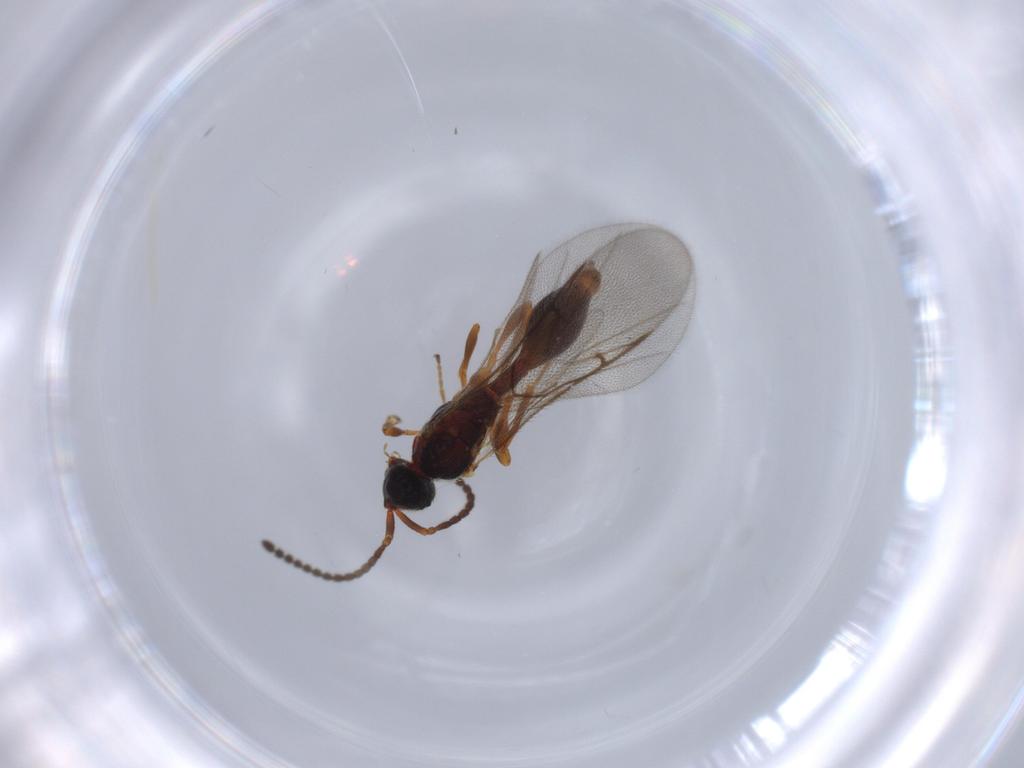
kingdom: Animalia
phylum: Arthropoda
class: Insecta
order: Hymenoptera
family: Diapriidae
